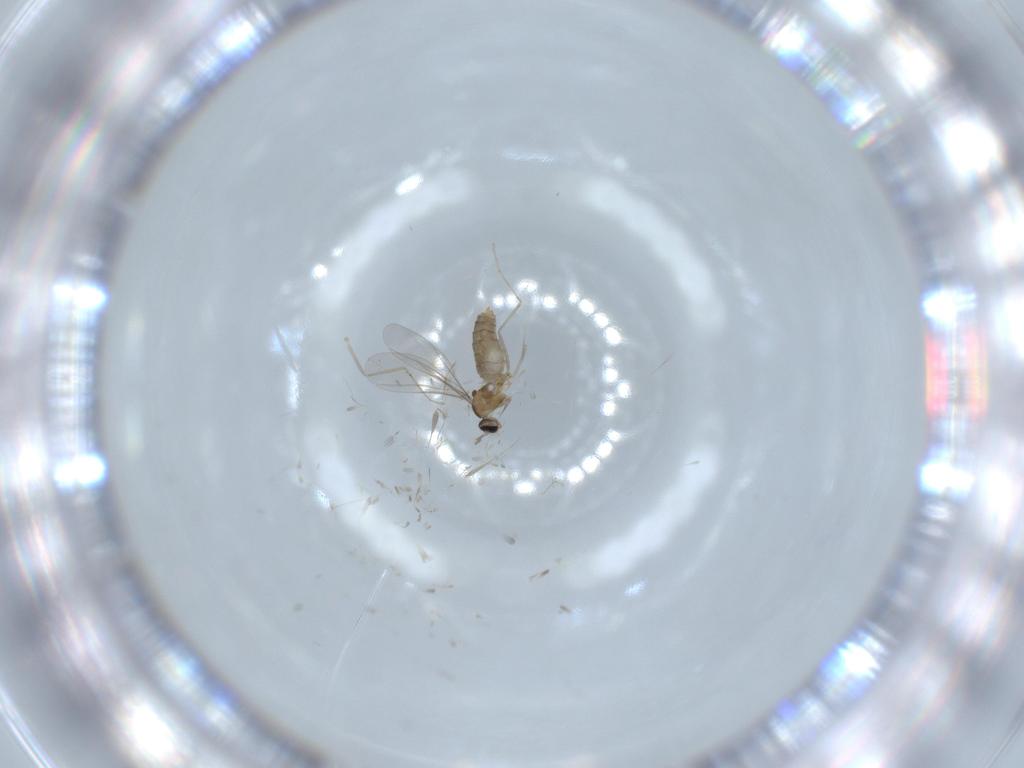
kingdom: Animalia
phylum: Arthropoda
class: Insecta
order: Diptera
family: Cecidomyiidae
